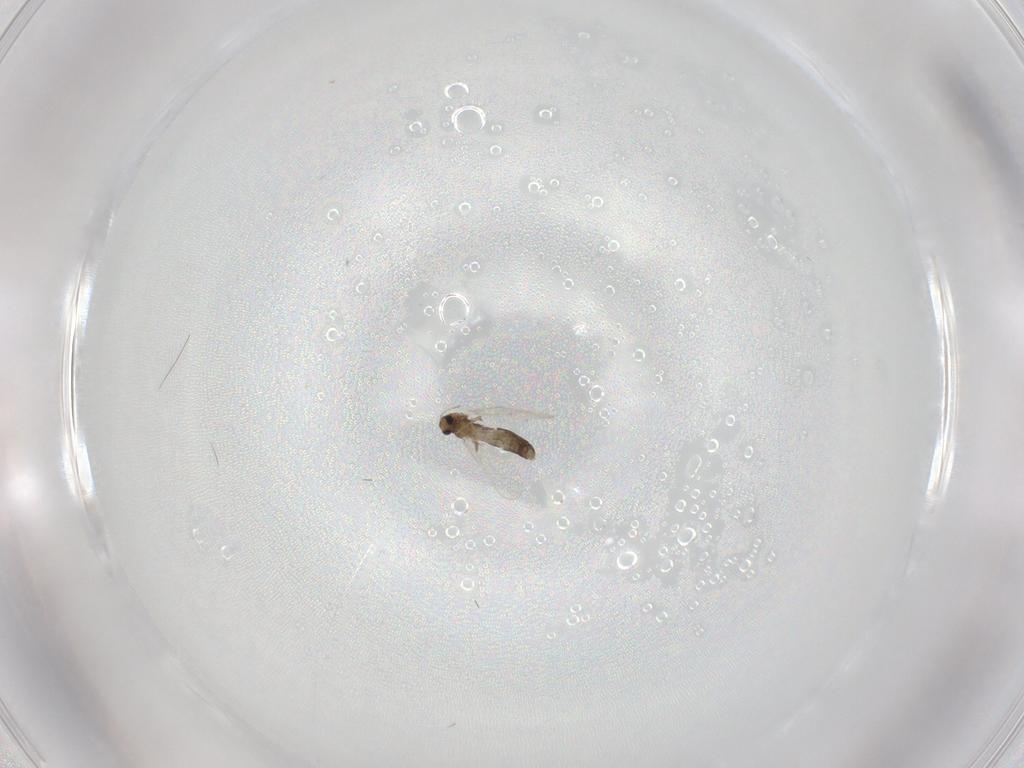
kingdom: Animalia
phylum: Arthropoda
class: Insecta
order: Diptera
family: Chironomidae
